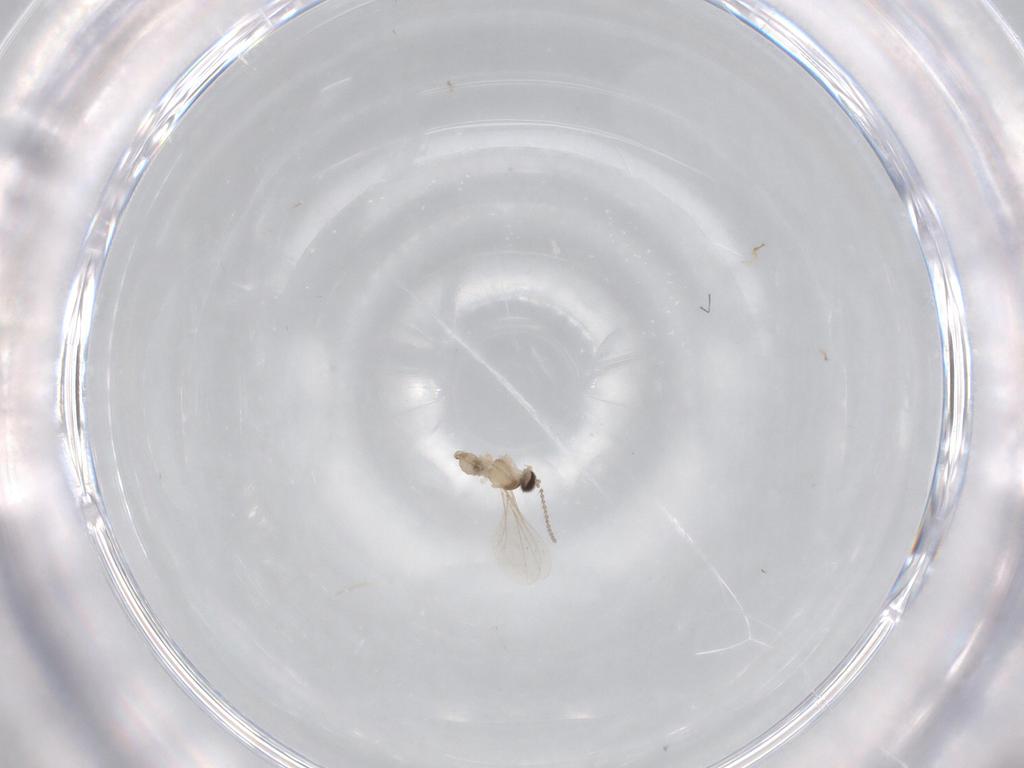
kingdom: Animalia
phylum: Arthropoda
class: Insecta
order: Diptera
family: Cecidomyiidae
